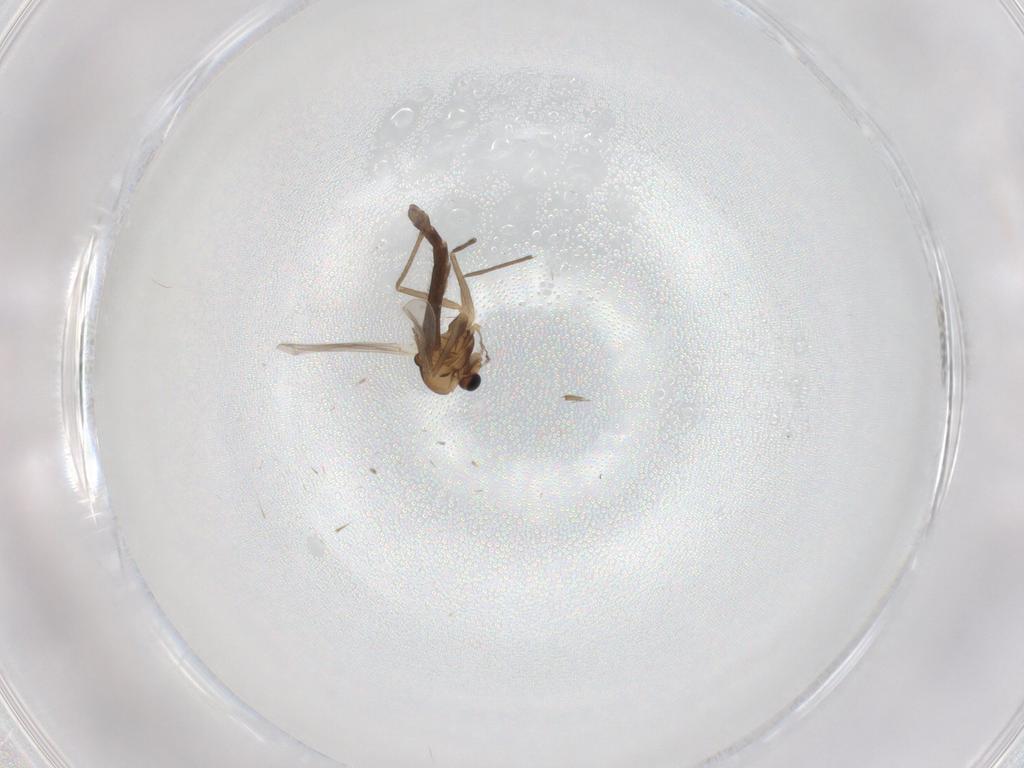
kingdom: Animalia
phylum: Arthropoda
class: Insecta
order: Diptera
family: Chironomidae
